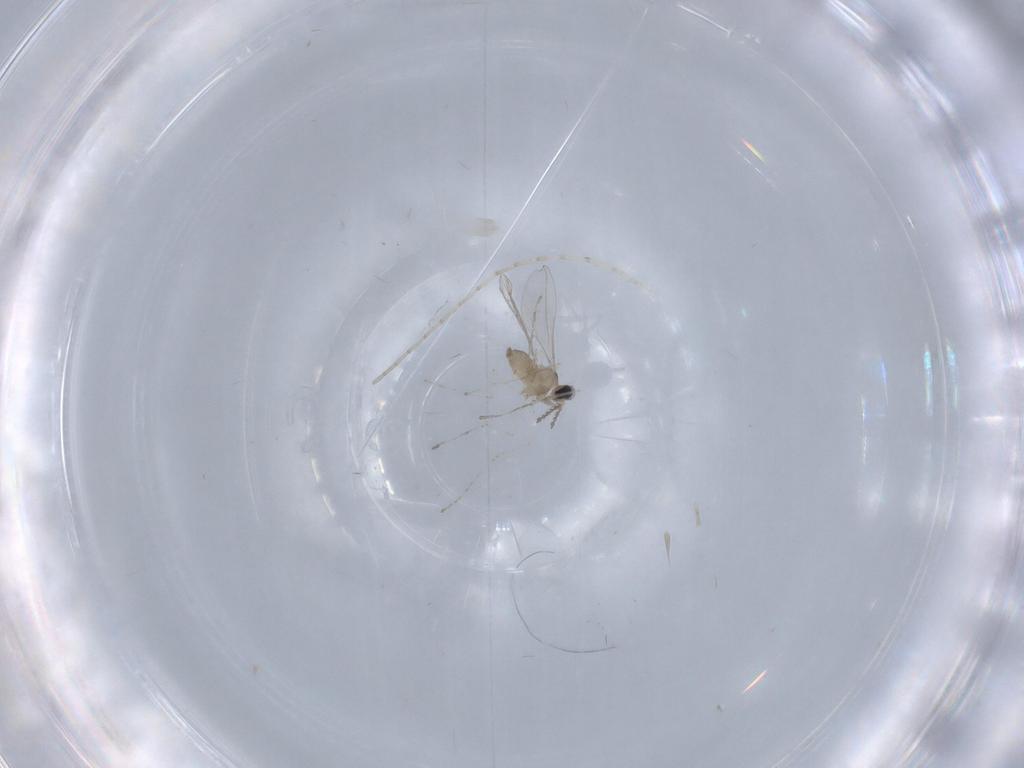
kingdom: Animalia
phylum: Arthropoda
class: Insecta
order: Diptera
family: Cecidomyiidae
